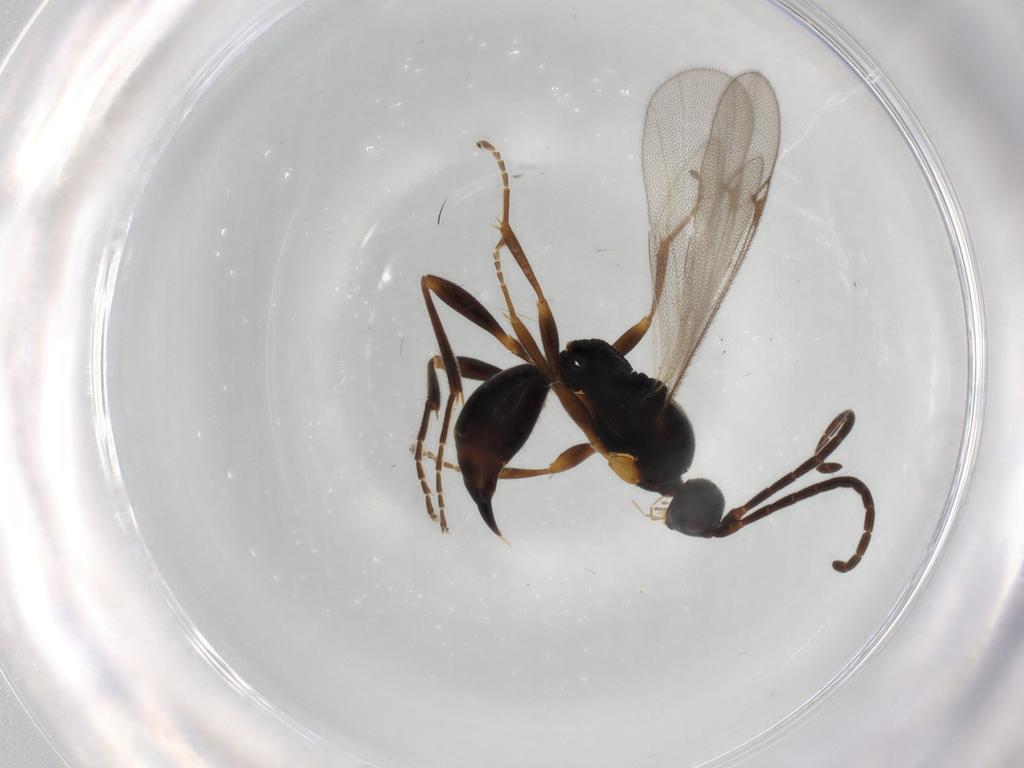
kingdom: Animalia
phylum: Arthropoda
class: Insecta
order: Hymenoptera
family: Proctotrupidae
